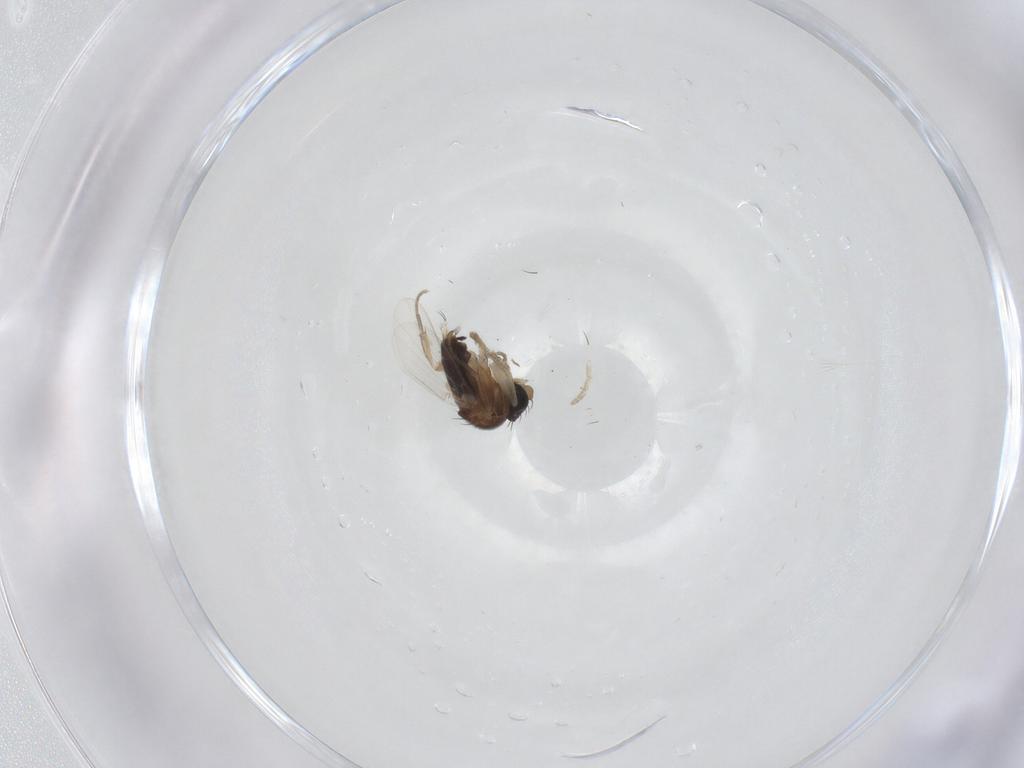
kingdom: Animalia
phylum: Arthropoda
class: Insecta
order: Diptera
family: Phoridae
